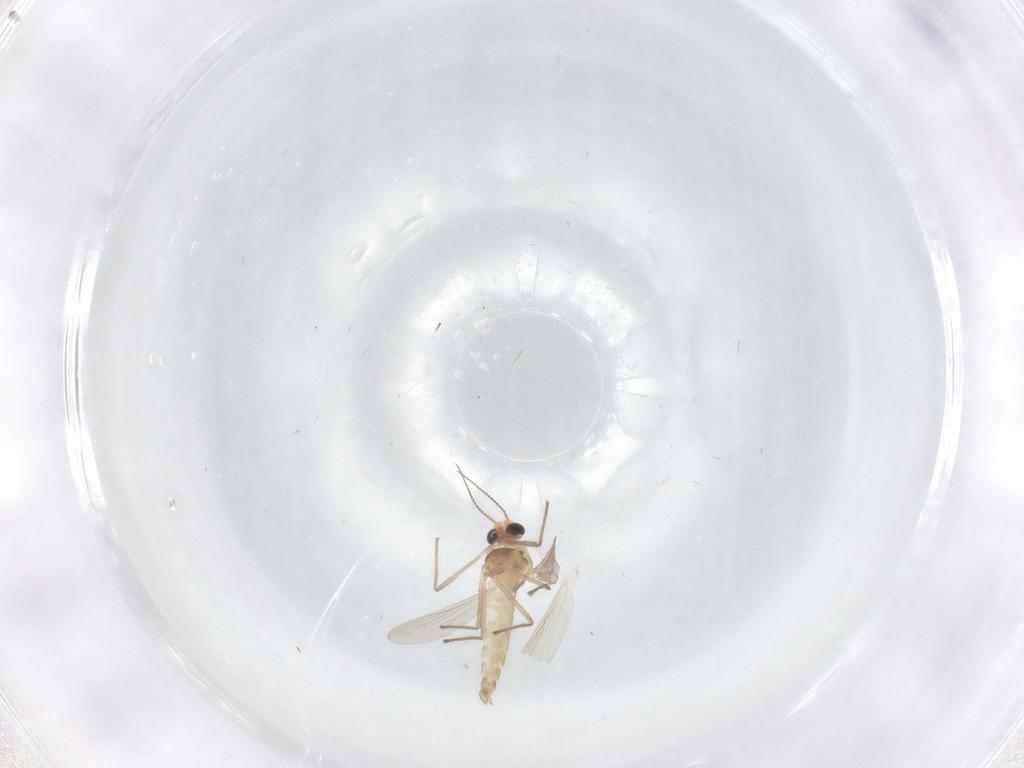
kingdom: Animalia
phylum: Arthropoda
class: Insecta
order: Diptera
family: Chironomidae
